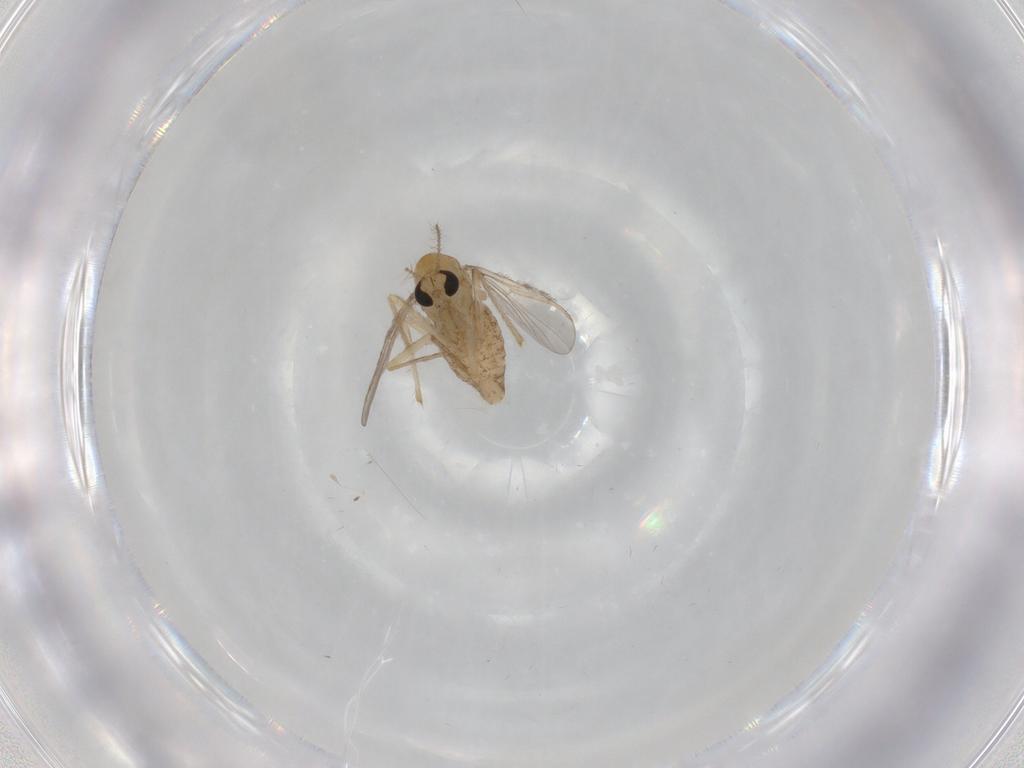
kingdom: Animalia
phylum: Arthropoda
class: Insecta
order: Diptera
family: Chironomidae
